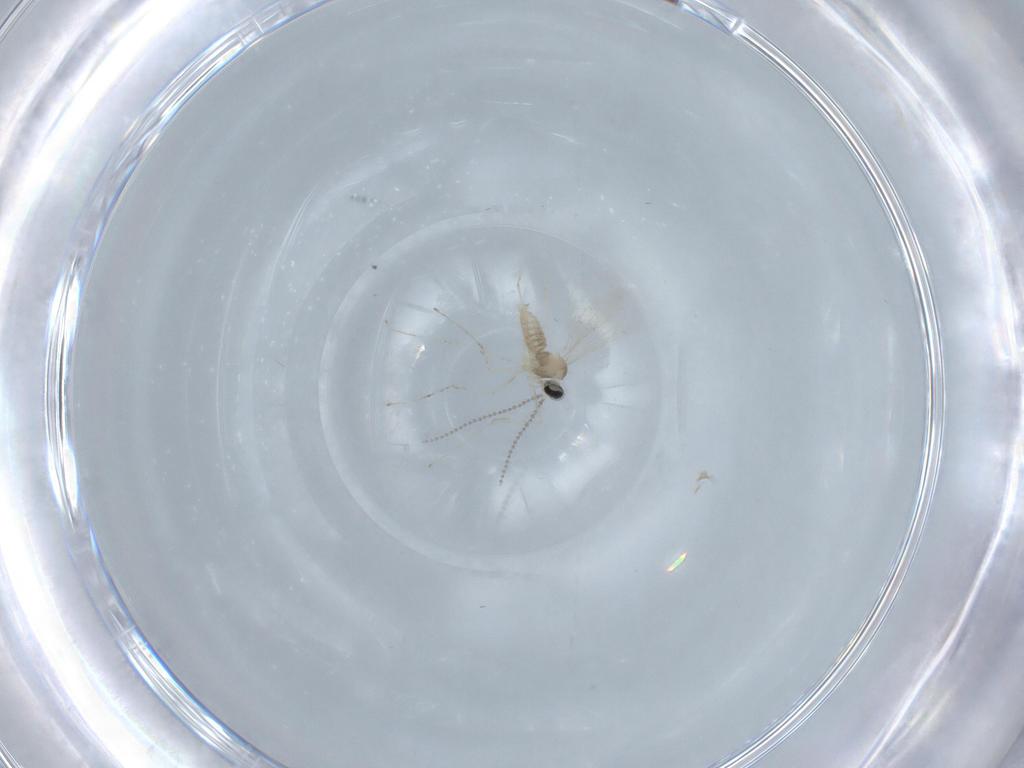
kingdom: Animalia
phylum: Arthropoda
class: Insecta
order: Diptera
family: Cecidomyiidae
